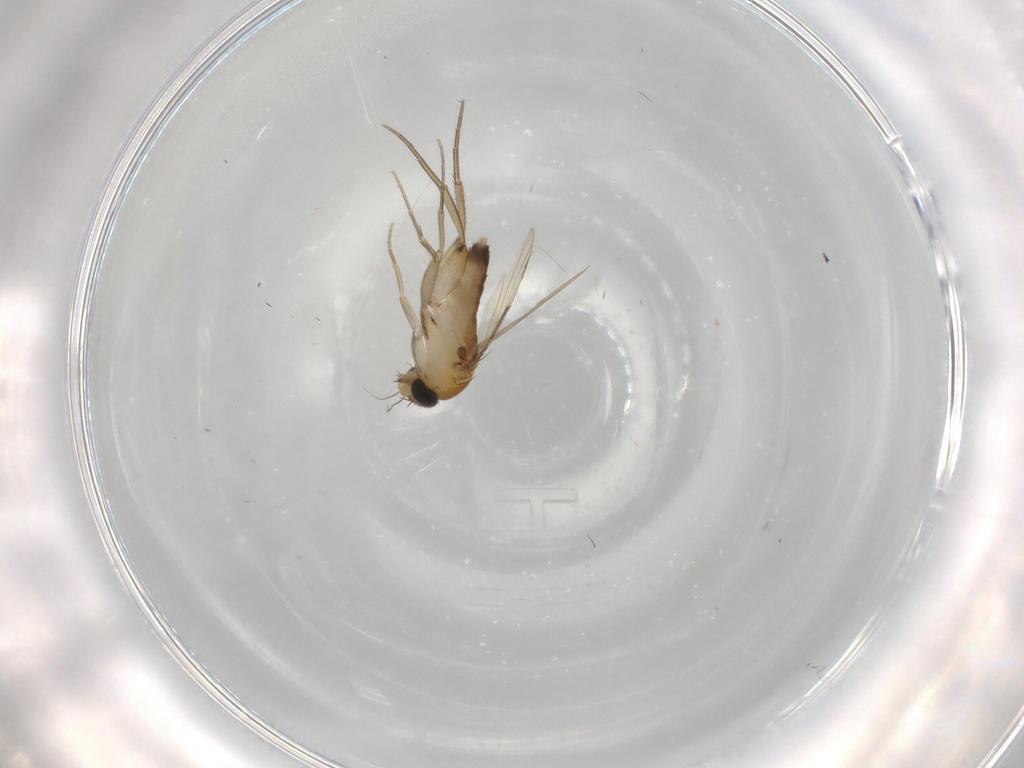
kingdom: Animalia
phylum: Arthropoda
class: Insecta
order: Diptera
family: Phoridae
